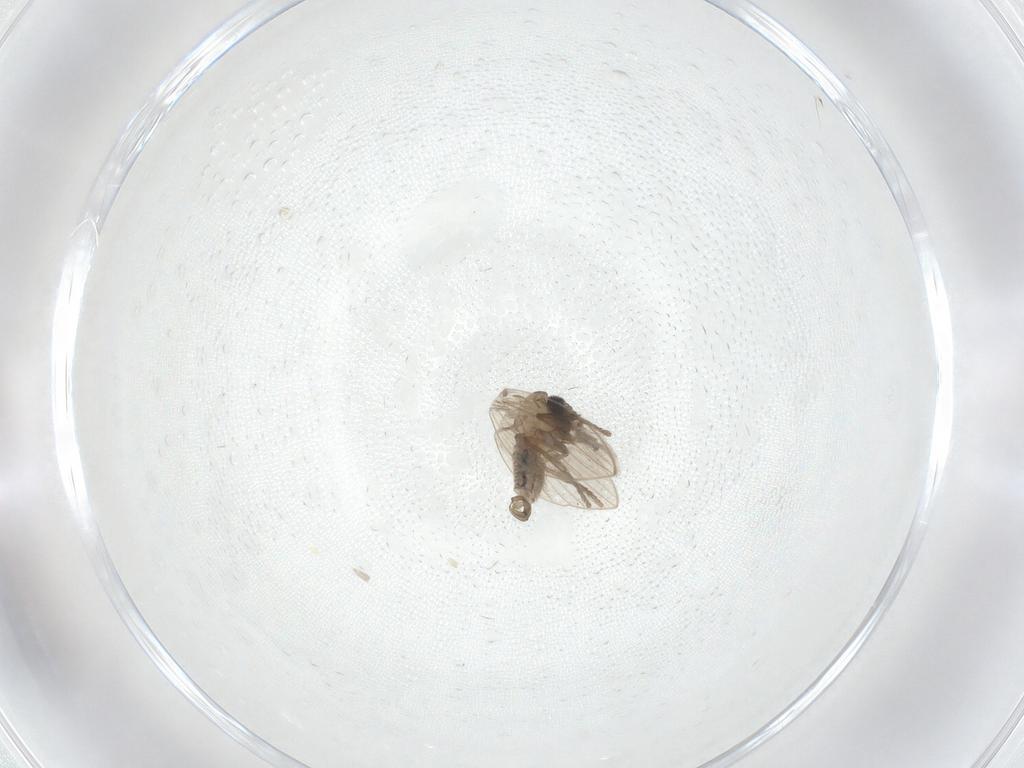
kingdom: Animalia
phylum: Arthropoda
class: Insecta
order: Diptera
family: Psychodidae
